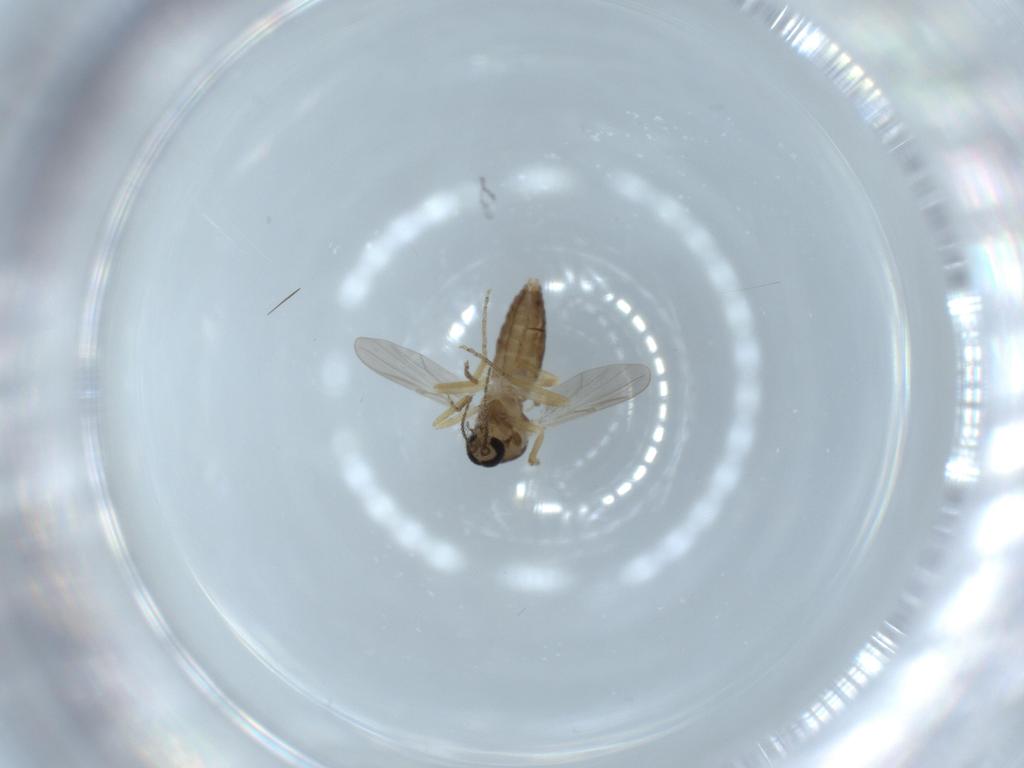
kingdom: Animalia
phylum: Arthropoda
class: Insecta
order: Diptera
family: Ceratopogonidae
